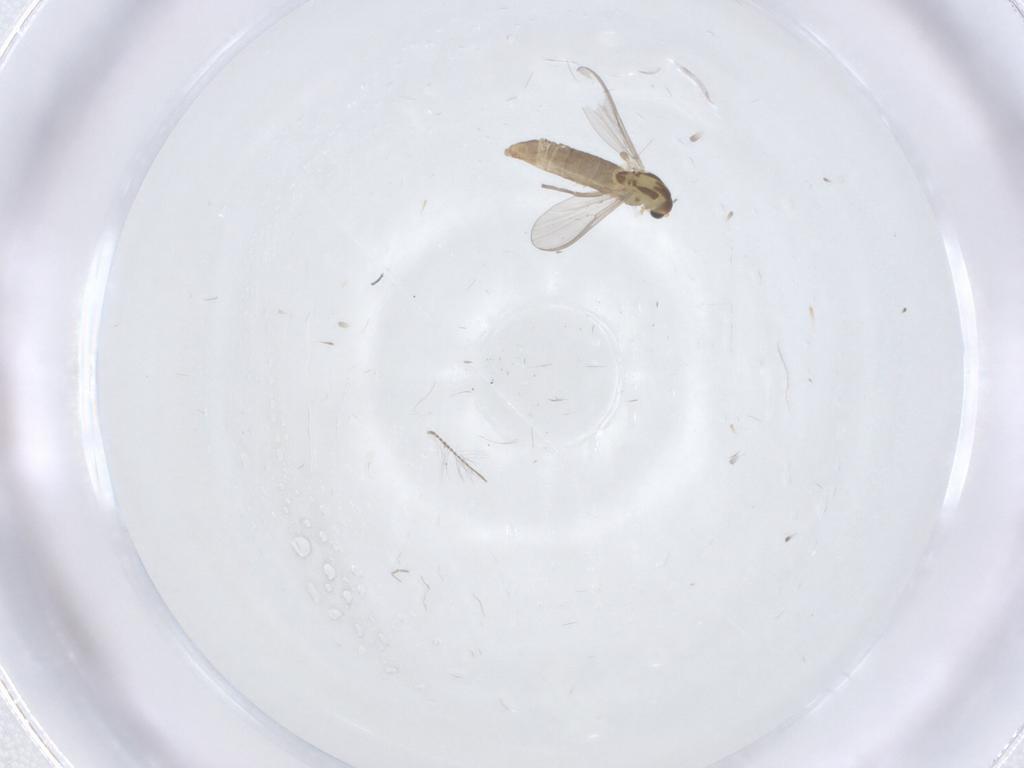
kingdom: Animalia
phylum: Arthropoda
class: Insecta
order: Diptera
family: Chironomidae
